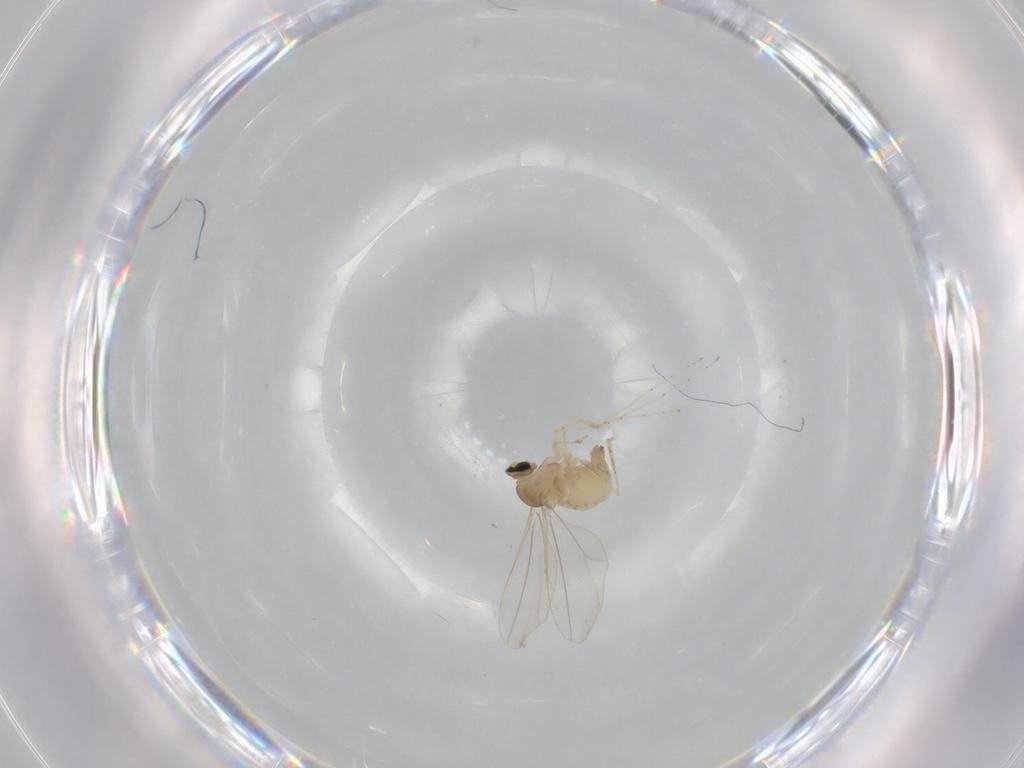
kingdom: Animalia
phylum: Arthropoda
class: Insecta
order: Diptera
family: Cecidomyiidae
